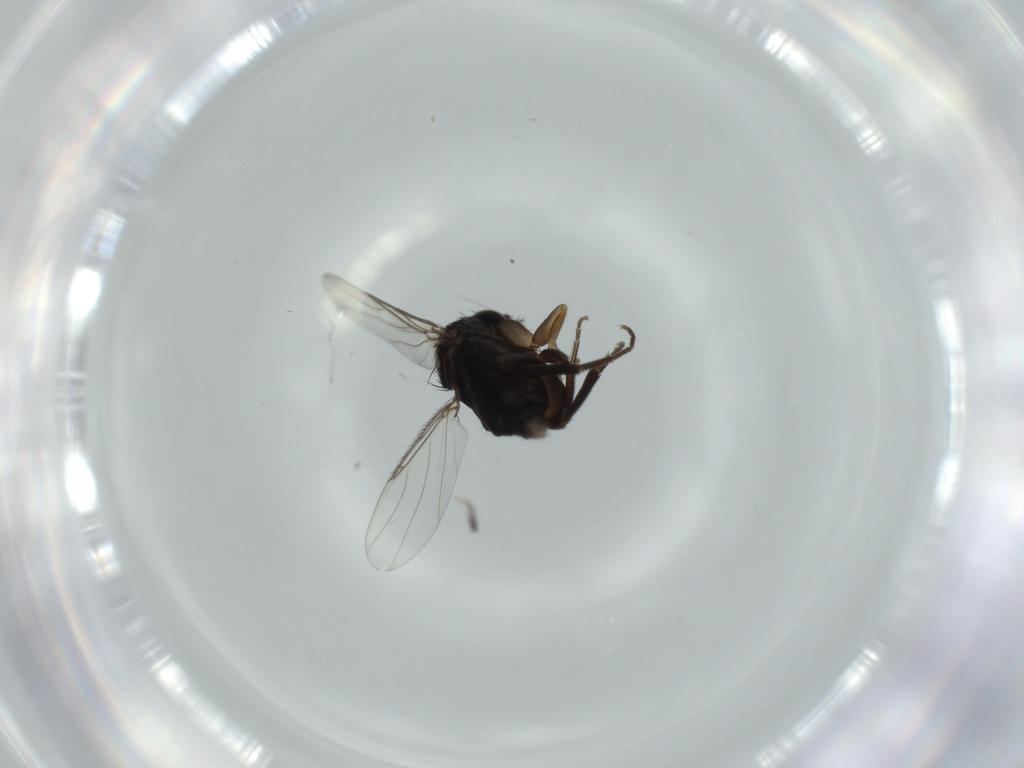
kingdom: Animalia
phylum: Arthropoda
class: Insecta
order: Diptera
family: Phoridae
